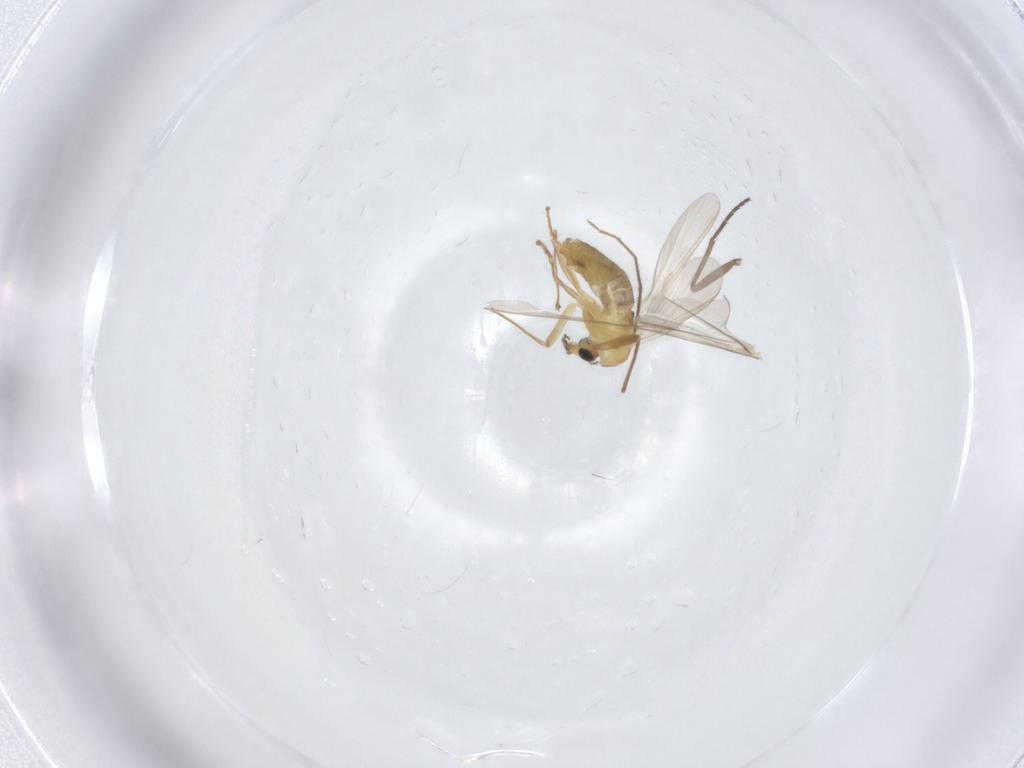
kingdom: Animalia
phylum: Arthropoda
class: Insecta
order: Diptera
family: Chironomidae
